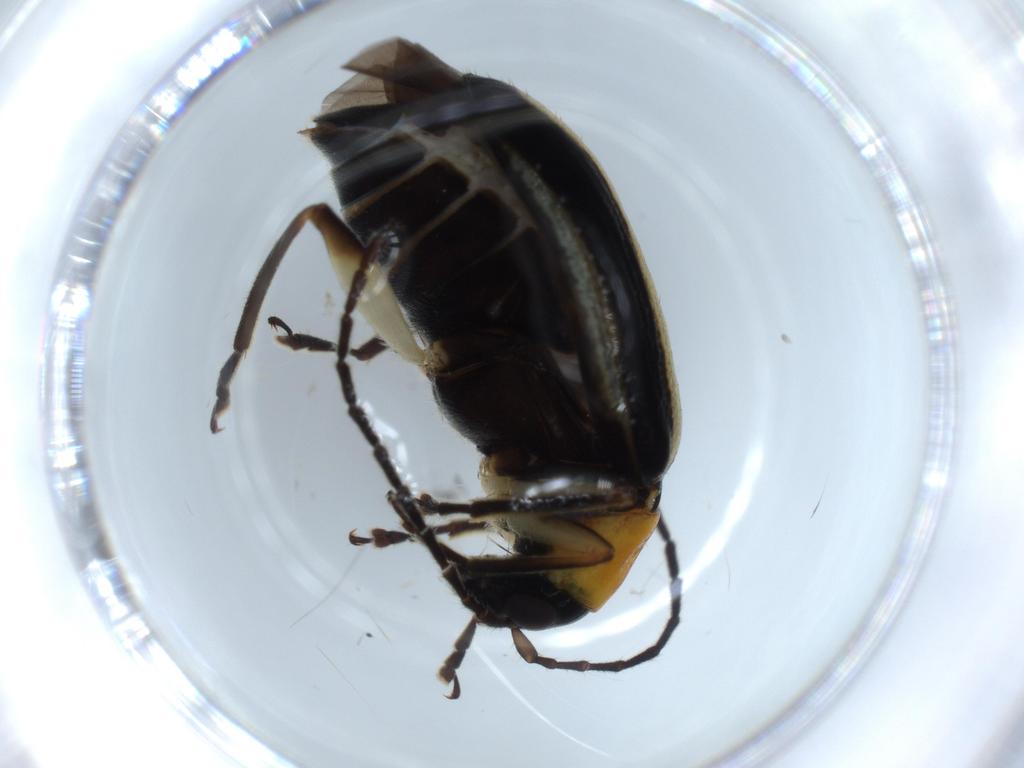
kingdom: Animalia
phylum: Arthropoda
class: Insecta
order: Coleoptera
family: Chrysomelidae
